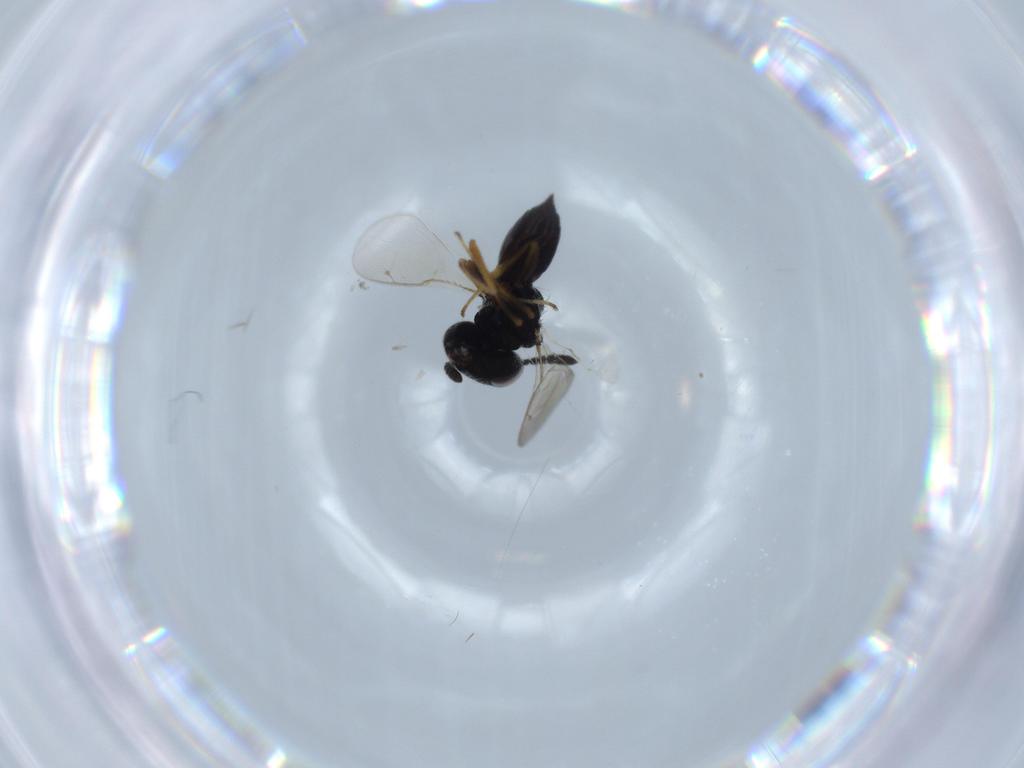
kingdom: Animalia
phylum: Arthropoda
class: Insecta
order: Hymenoptera
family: Pteromalidae
